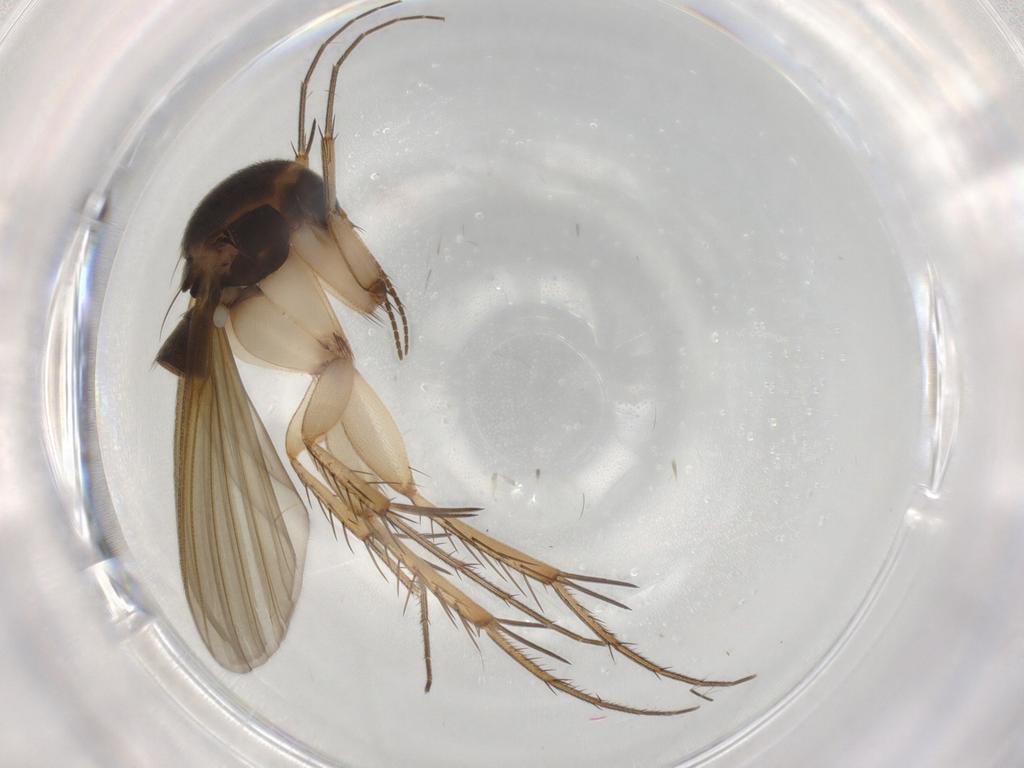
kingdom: Animalia
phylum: Arthropoda
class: Insecta
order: Diptera
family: Mycetophilidae
